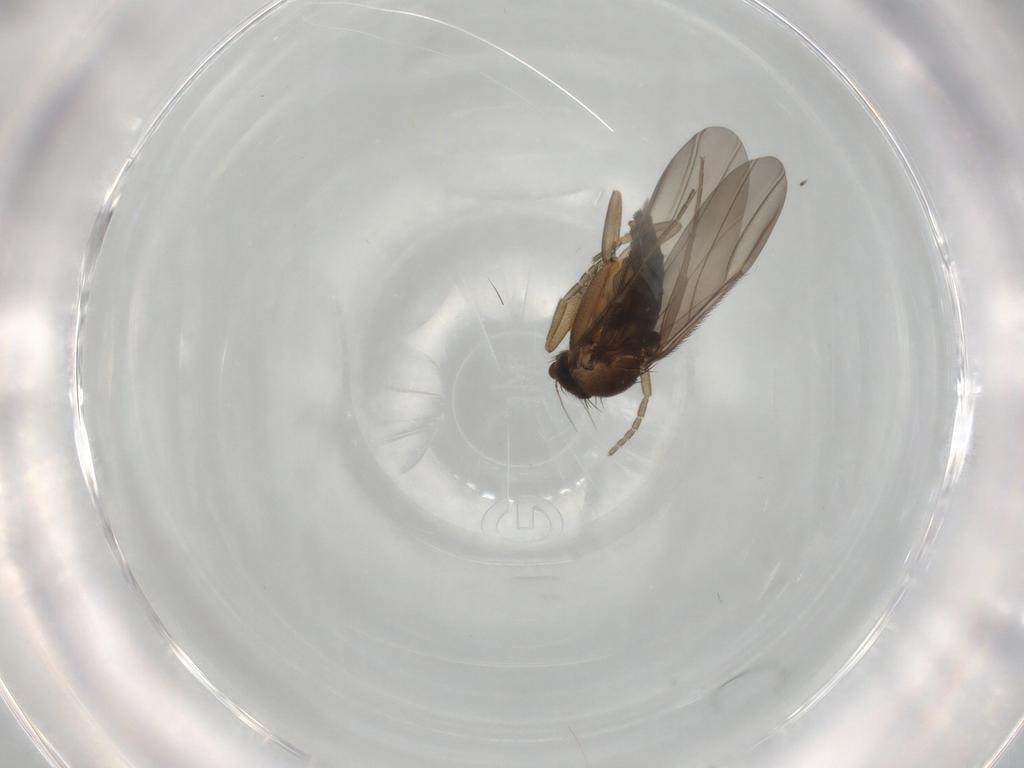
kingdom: Animalia
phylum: Arthropoda
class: Insecta
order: Diptera
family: Phoridae
